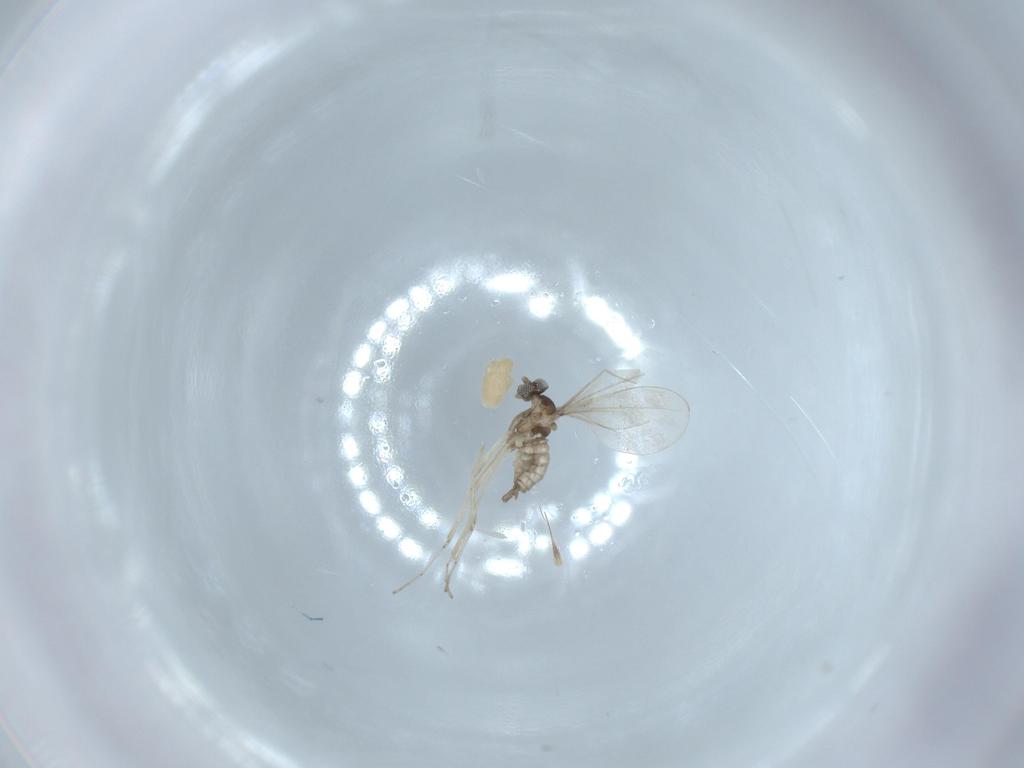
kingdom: Animalia
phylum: Arthropoda
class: Insecta
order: Diptera
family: Cecidomyiidae
